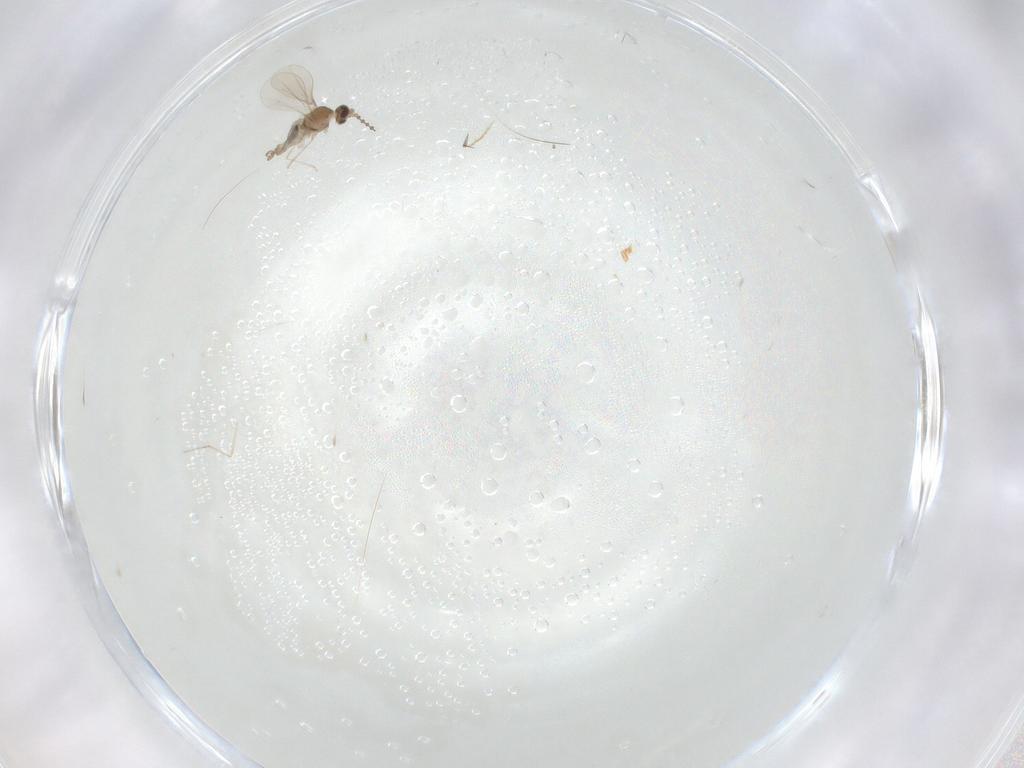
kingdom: Animalia
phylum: Arthropoda
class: Insecta
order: Diptera
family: Cecidomyiidae
